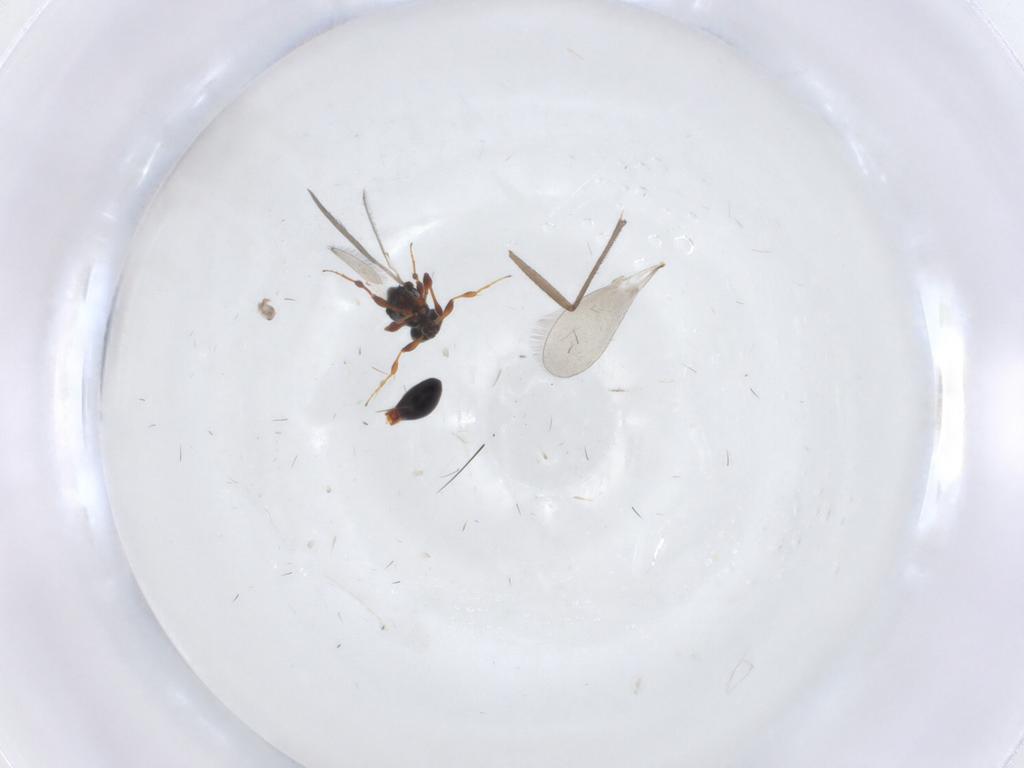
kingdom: Animalia
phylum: Arthropoda
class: Insecta
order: Hymenoptera
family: Platygastridae
